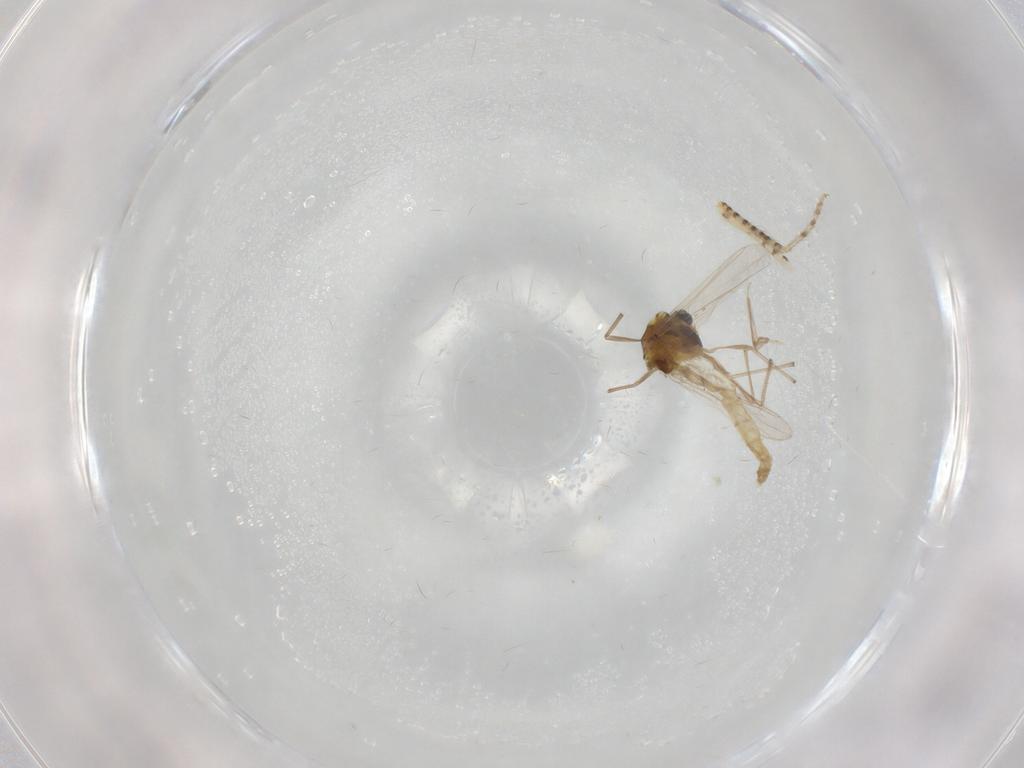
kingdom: Animalia
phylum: Arthropoda
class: Insecta
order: Diptera
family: Chironomidae
